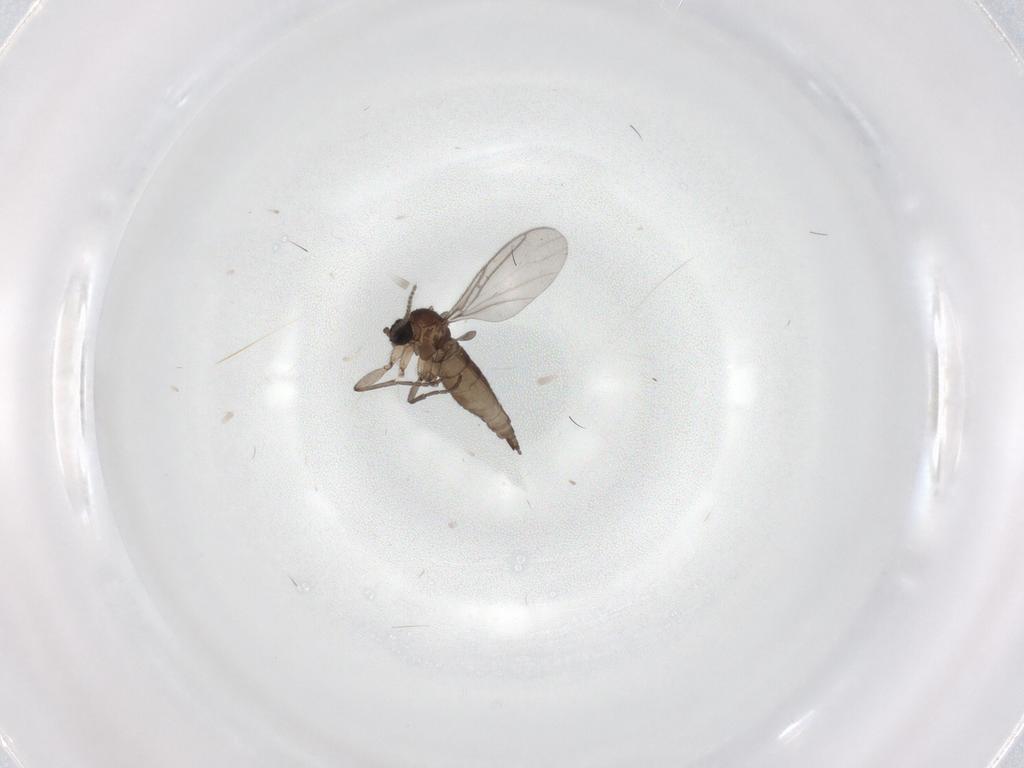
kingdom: Animalia
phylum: Arthropoda
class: Insecta
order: Diptera
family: Sciaridae
